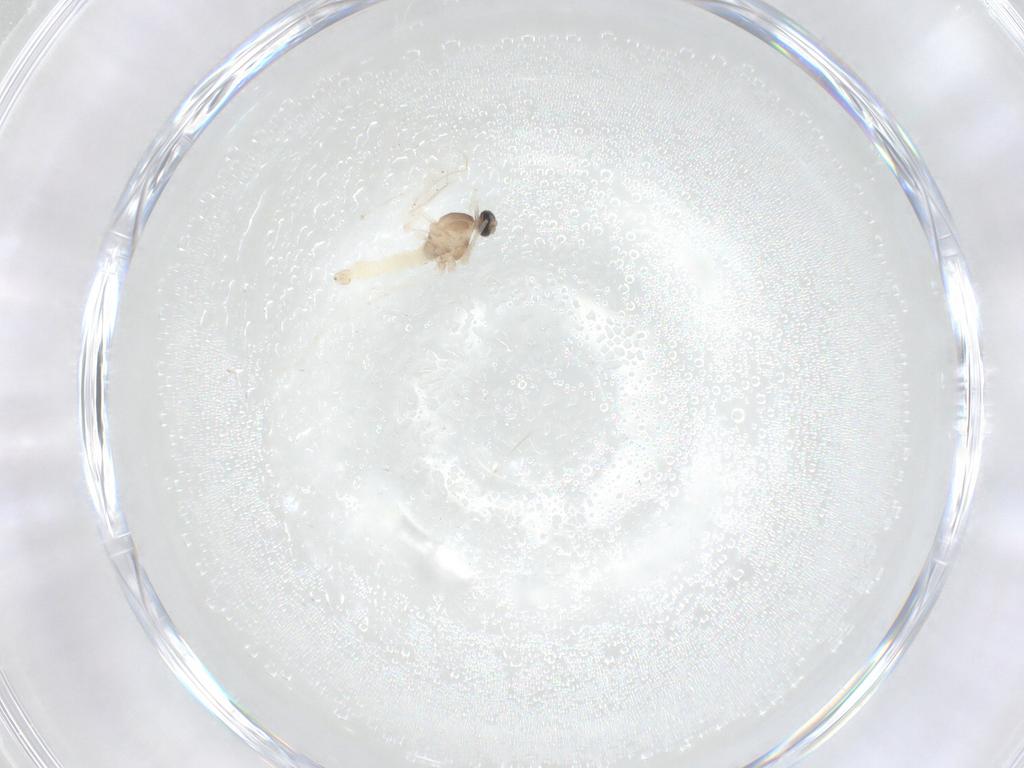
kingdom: Animalia
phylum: Arthropoda
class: Insecta
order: Diptera
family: Cecidomyiidae
